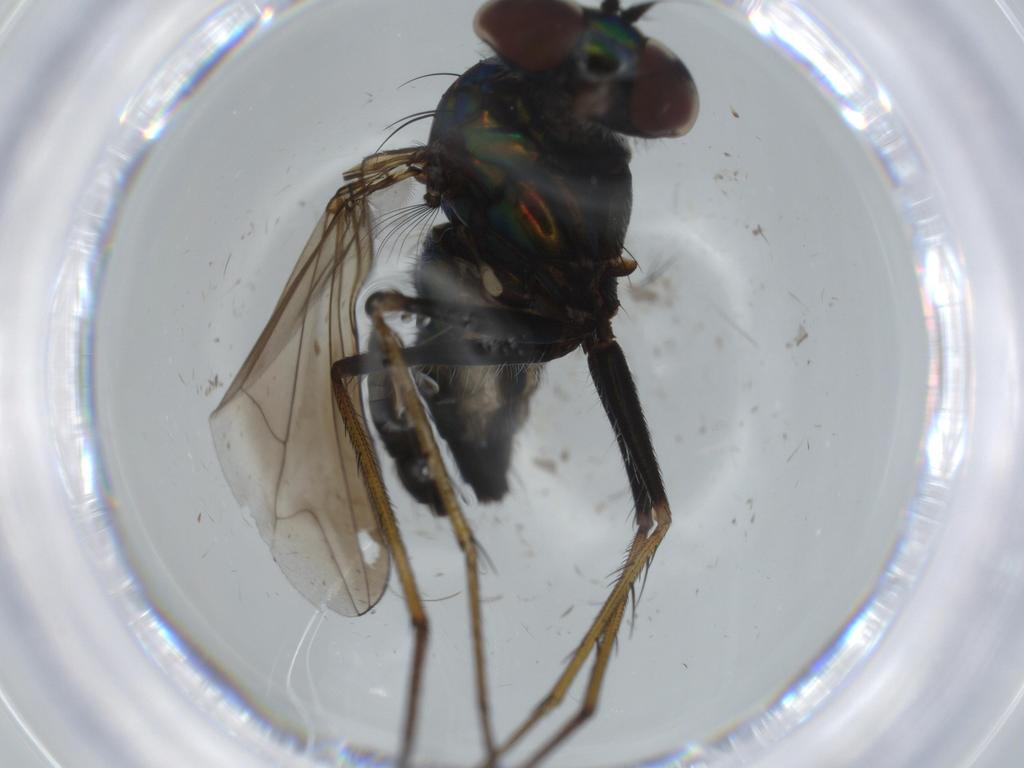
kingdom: Animalia
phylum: Arthropoda
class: Insecta
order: Diptera
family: Dolichopodidae
